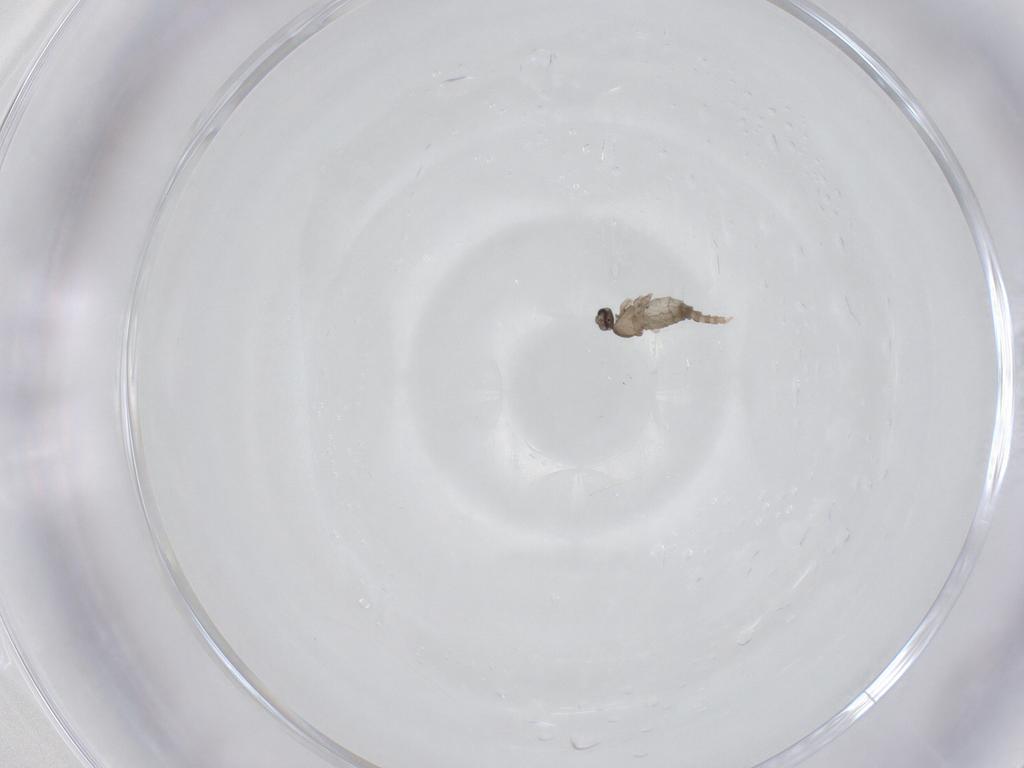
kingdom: Animalia
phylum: Arthropoda
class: Insecta
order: Diptera
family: Cecidomyiidae
